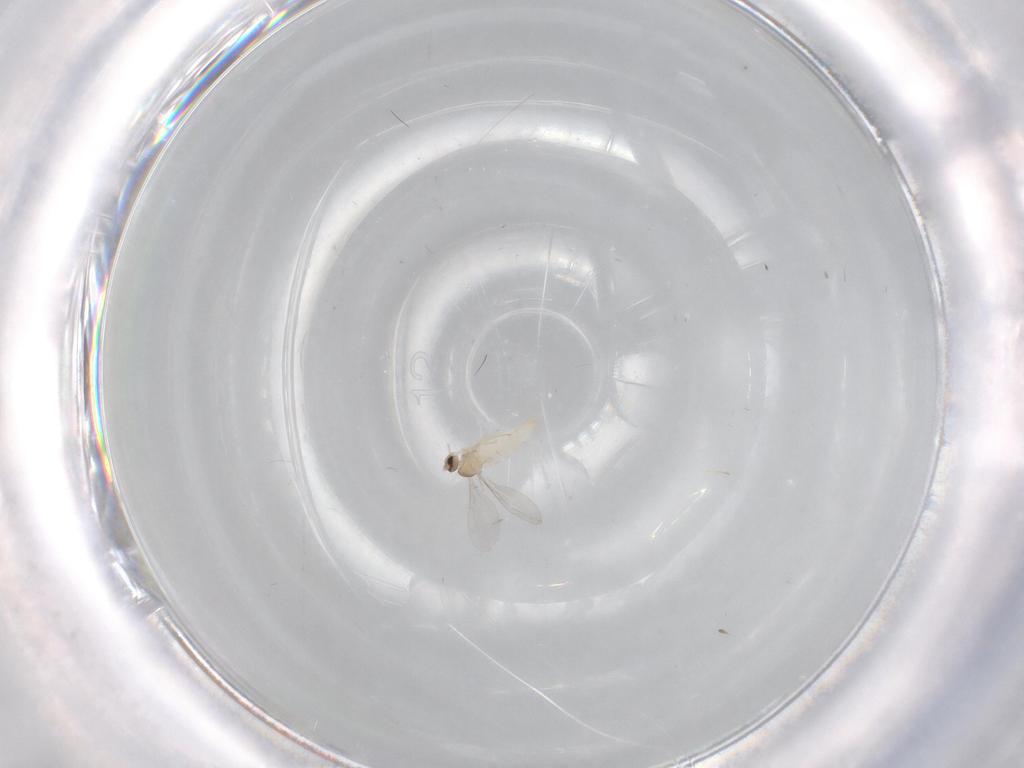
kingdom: Animalia
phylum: Arthropoda
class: Insecta
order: Diptera
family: Cecidomyiidae
